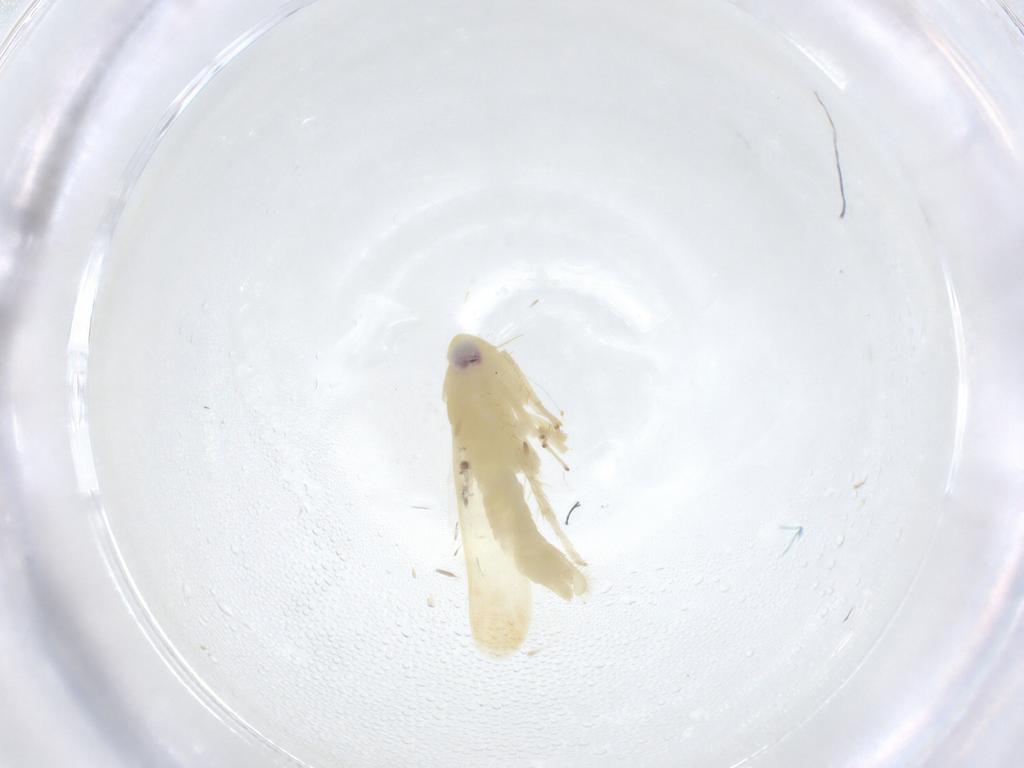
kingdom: Animalia
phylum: Arthropoda
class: Insecta
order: Hemiptera
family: Cicadellidae
